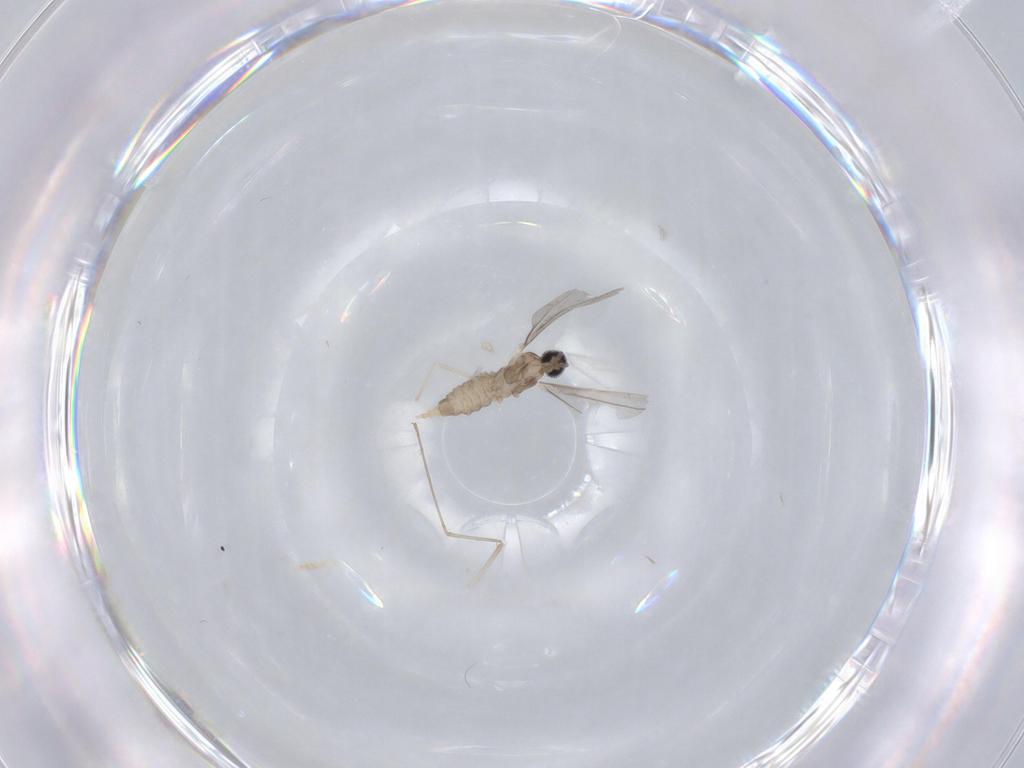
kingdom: Animalia
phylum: Arthropoda
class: Insecta
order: Diptera
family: Cecidomyiidae
